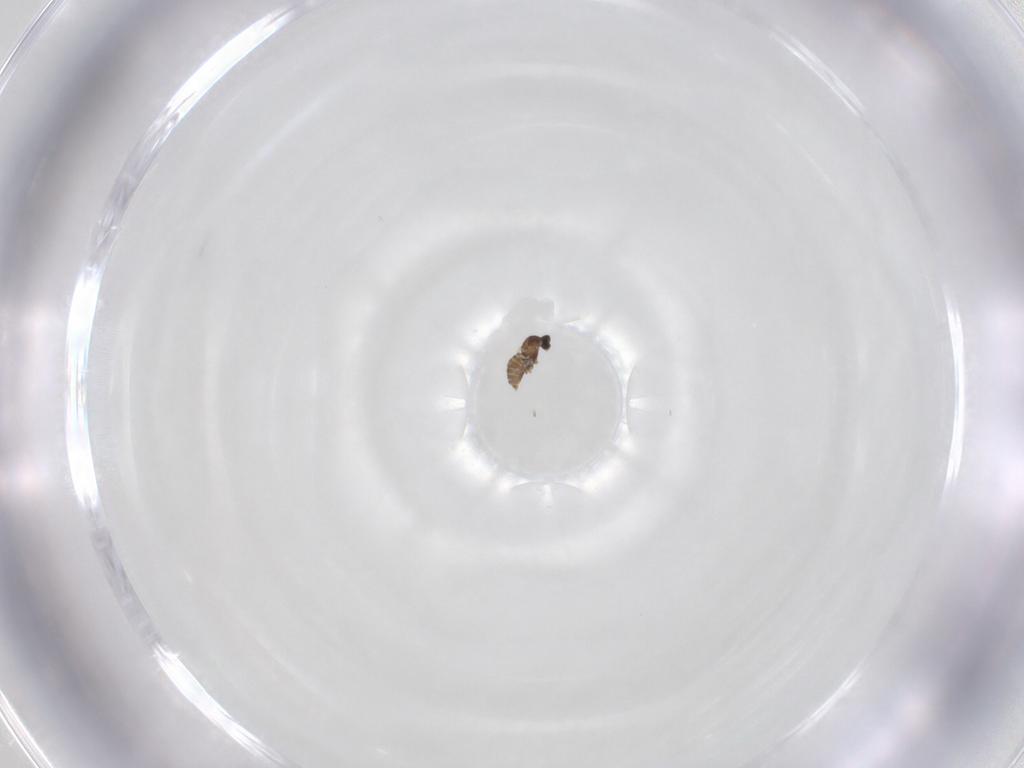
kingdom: Animalia
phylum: Arthropoda
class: Insecta
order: Diptera
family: Cecidomyiidae
